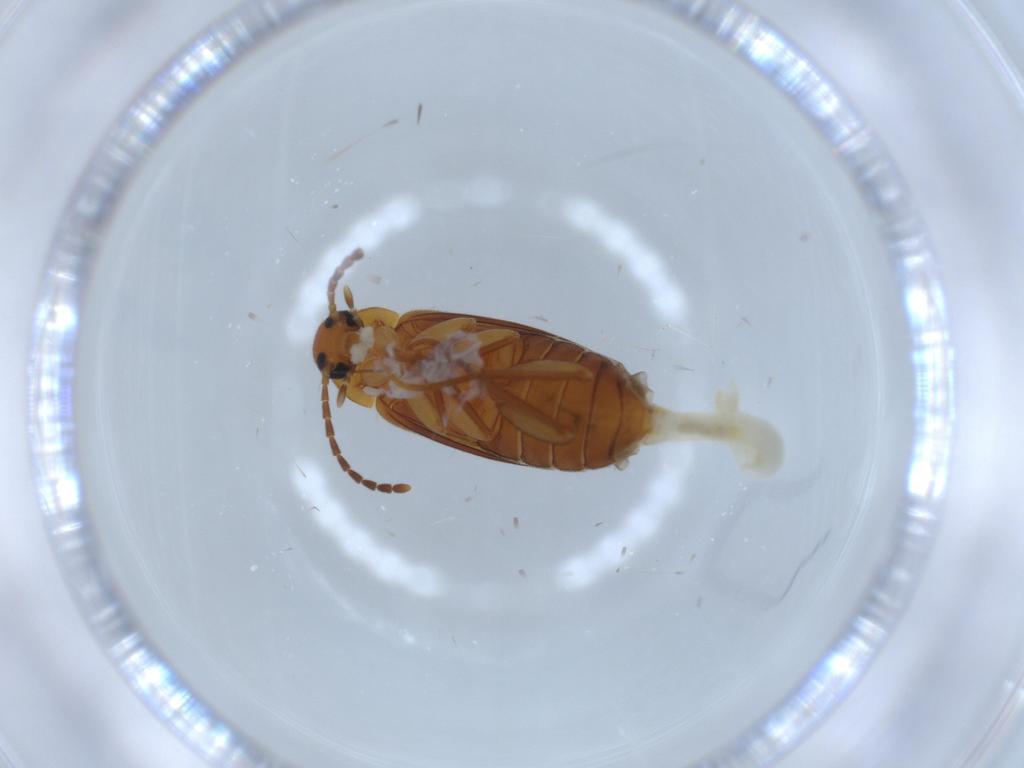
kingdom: Animalia
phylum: Arthropoda
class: Insecta
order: Coleoptera
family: Scraptiidae
